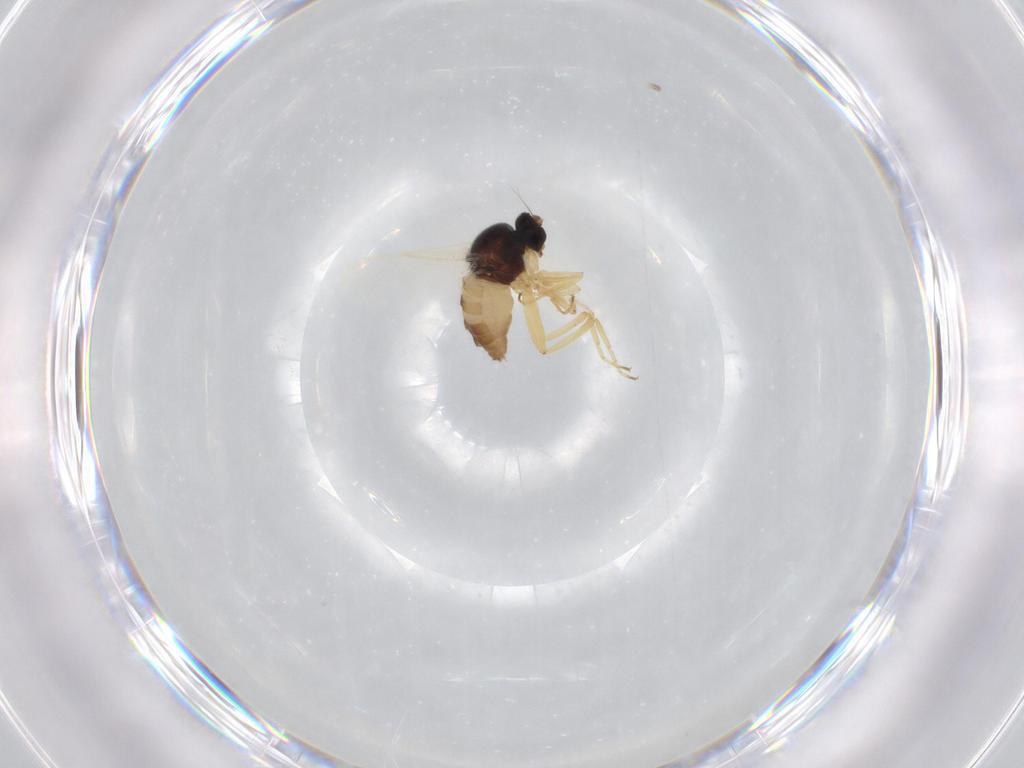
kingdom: Animalia
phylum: Arthropoda
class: Insecta
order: Diptera
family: Hybotidae
